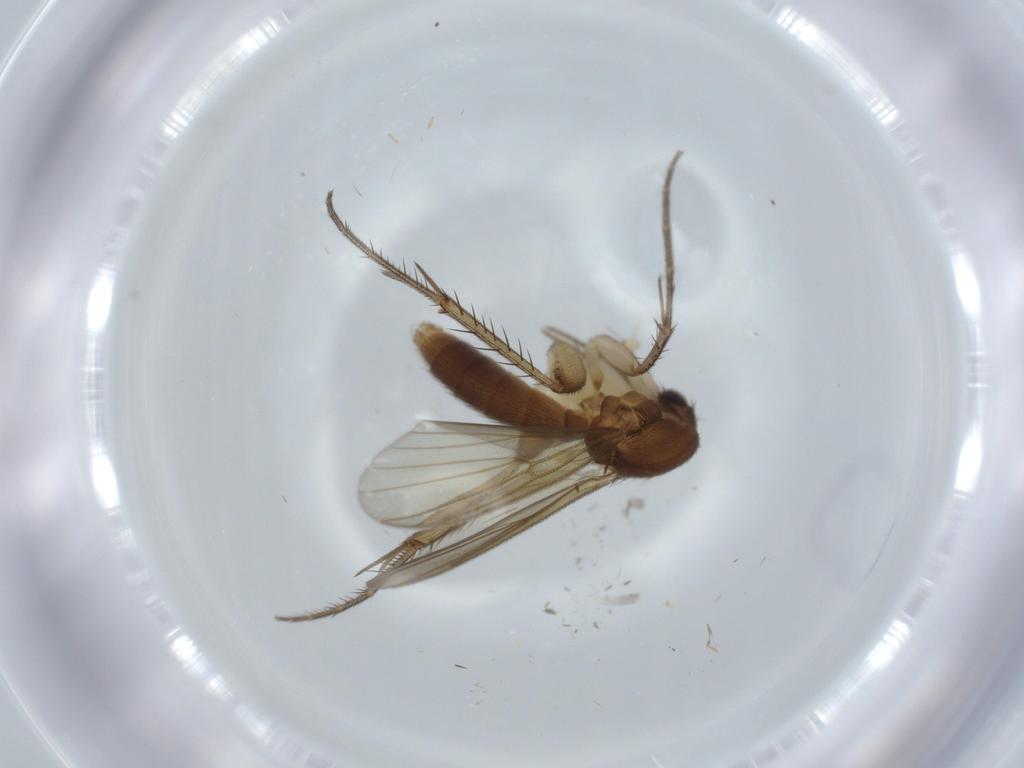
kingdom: Animalia
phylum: Arthropoda
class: Insecta
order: Diptera
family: Mycetophilidae
